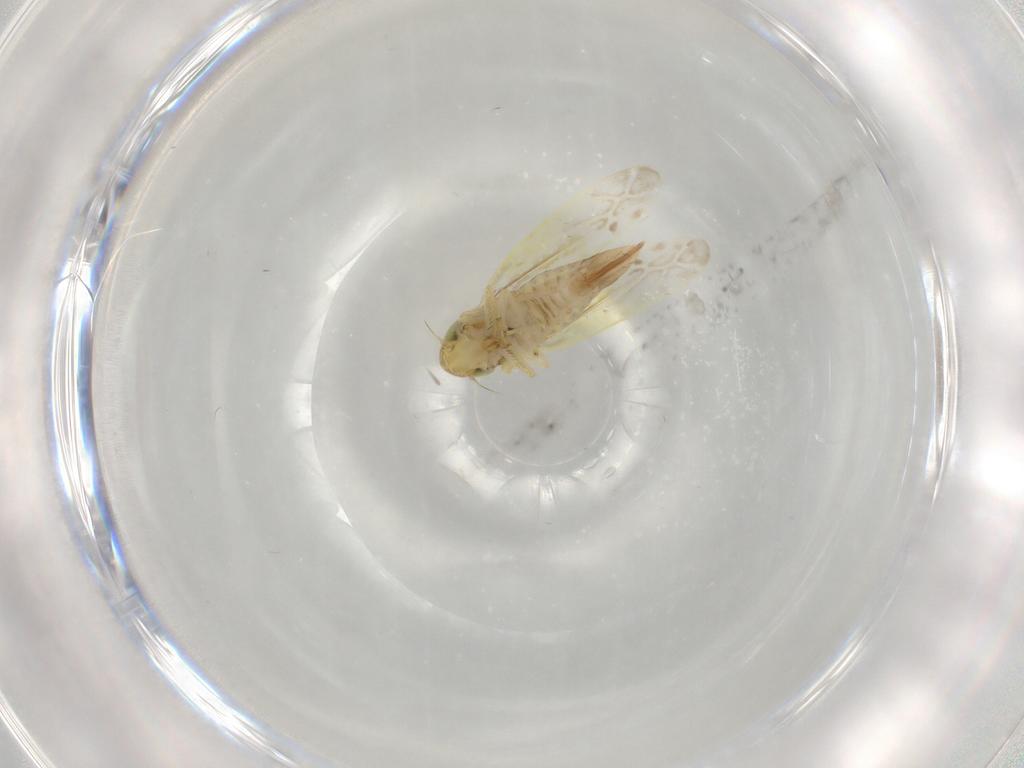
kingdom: Animalia
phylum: Arthropoda
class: Insecta
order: Hemiptera
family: Cicadellidae
